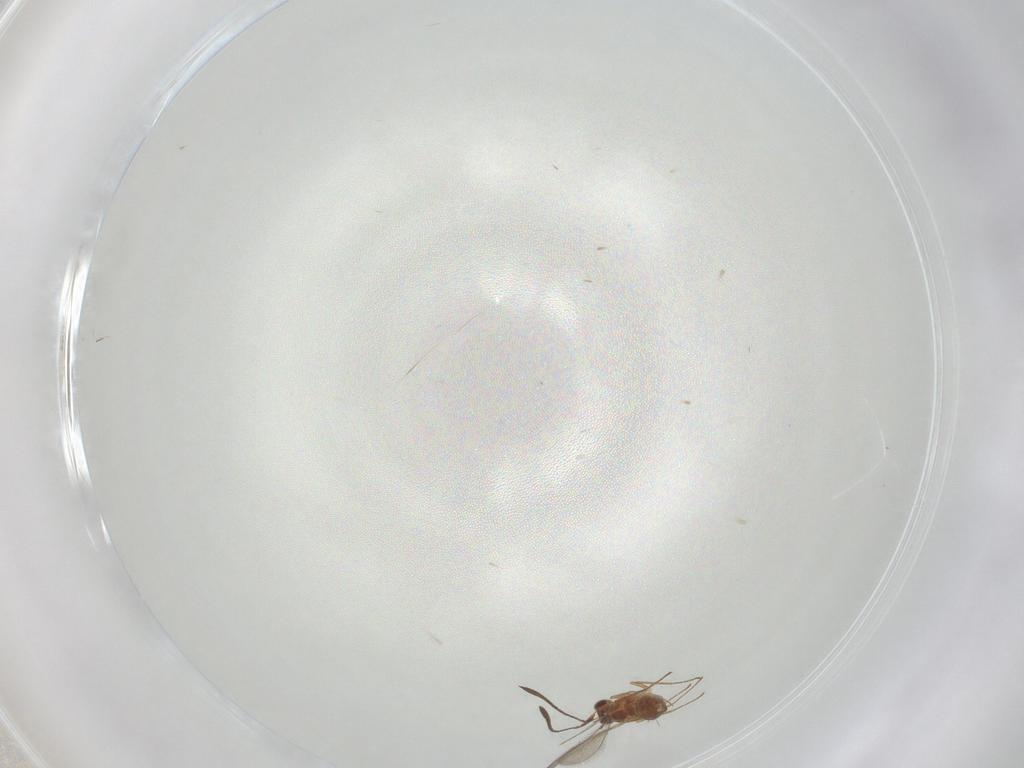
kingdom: Animalia
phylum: Arthropoda
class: Insecta
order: Hymenoptera
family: Mymaridae
